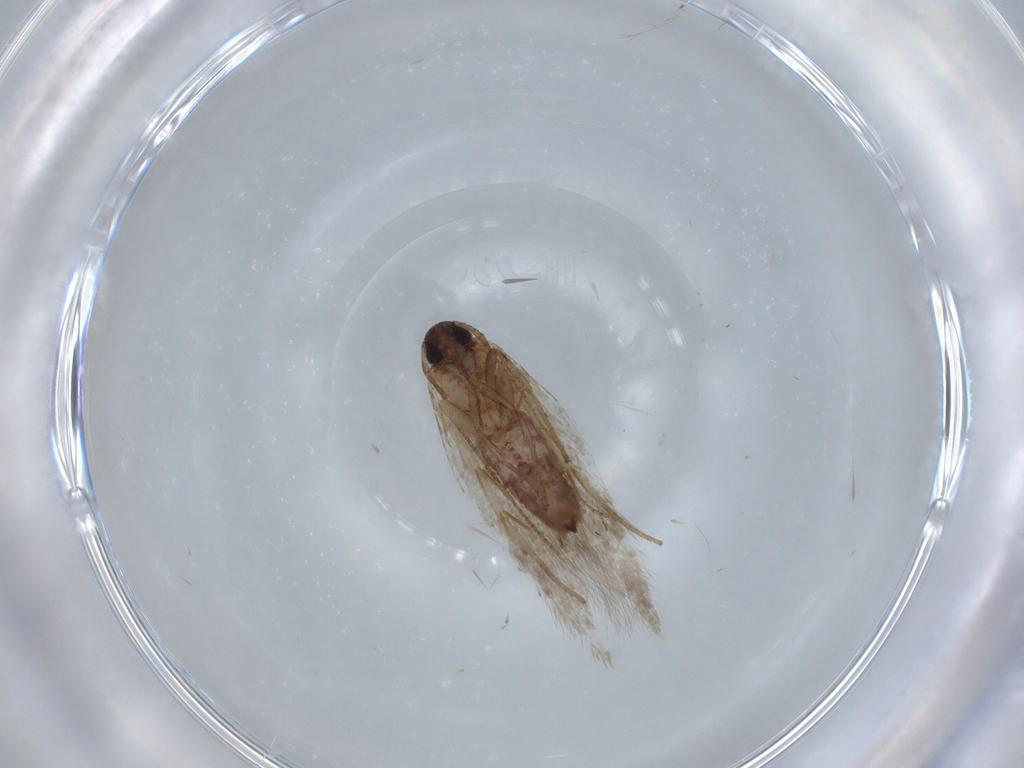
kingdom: Animalia
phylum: Arthropoda
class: Insecta
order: Lepidoptera
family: Cosmopterigidae
